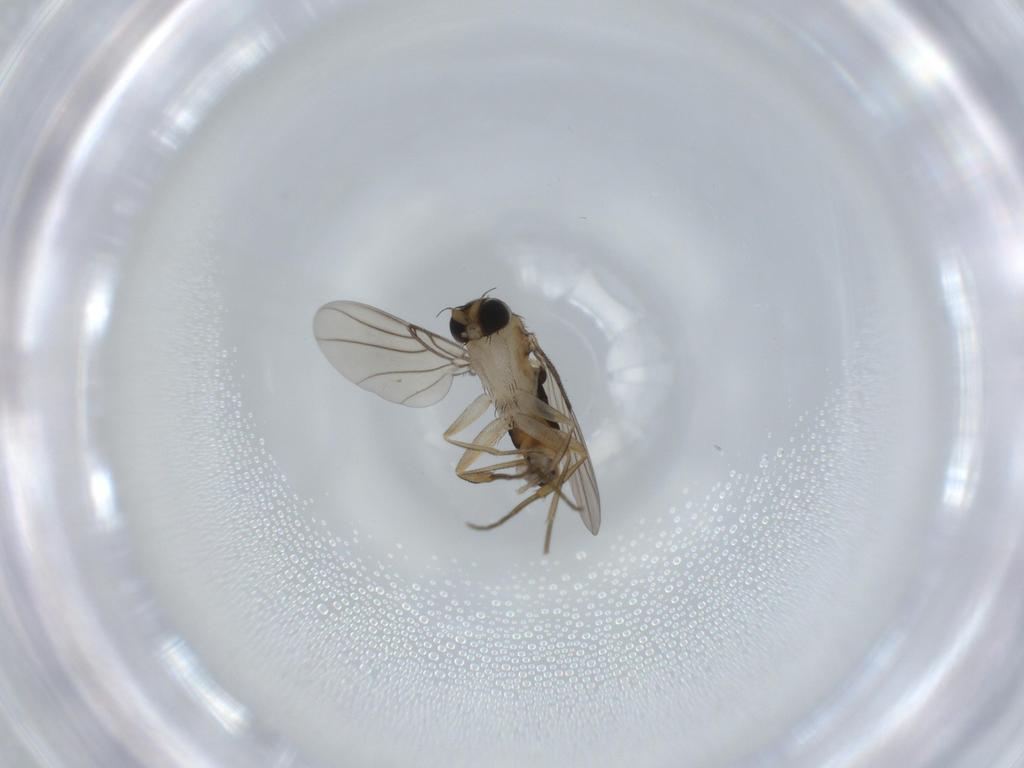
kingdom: Animalia
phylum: Arthropoda
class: Insecta
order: Diptera
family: Phoridae
